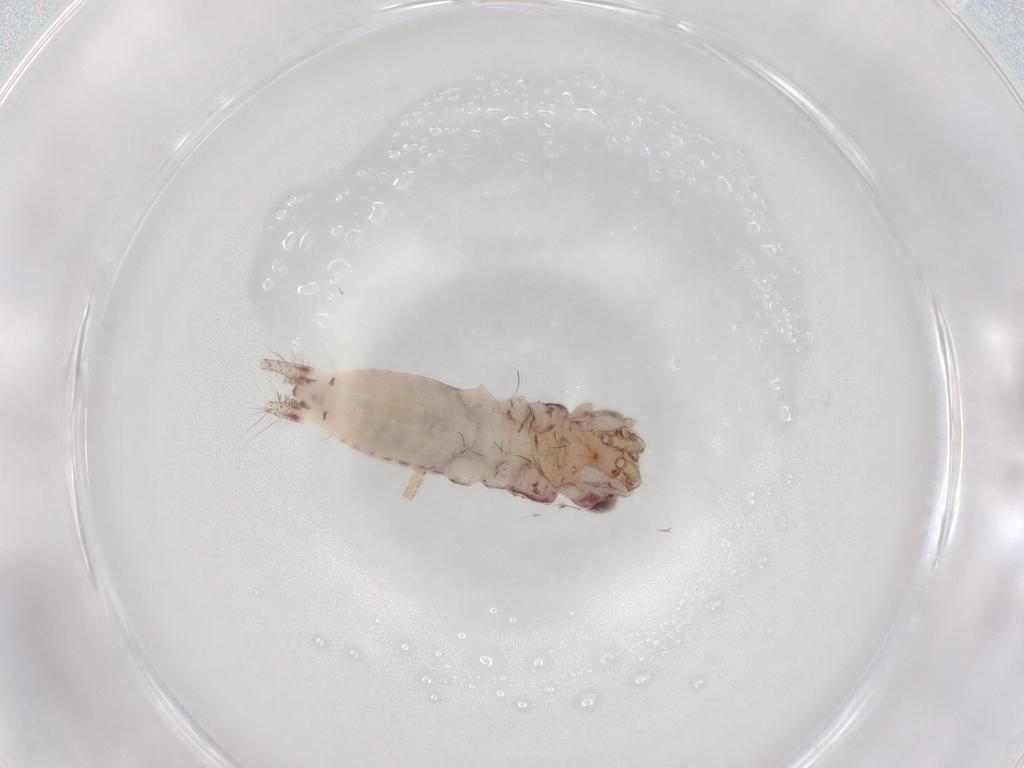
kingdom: Animalia
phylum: Arthropoda
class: Insecta
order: Orthoptera
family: Trigonidiidae
